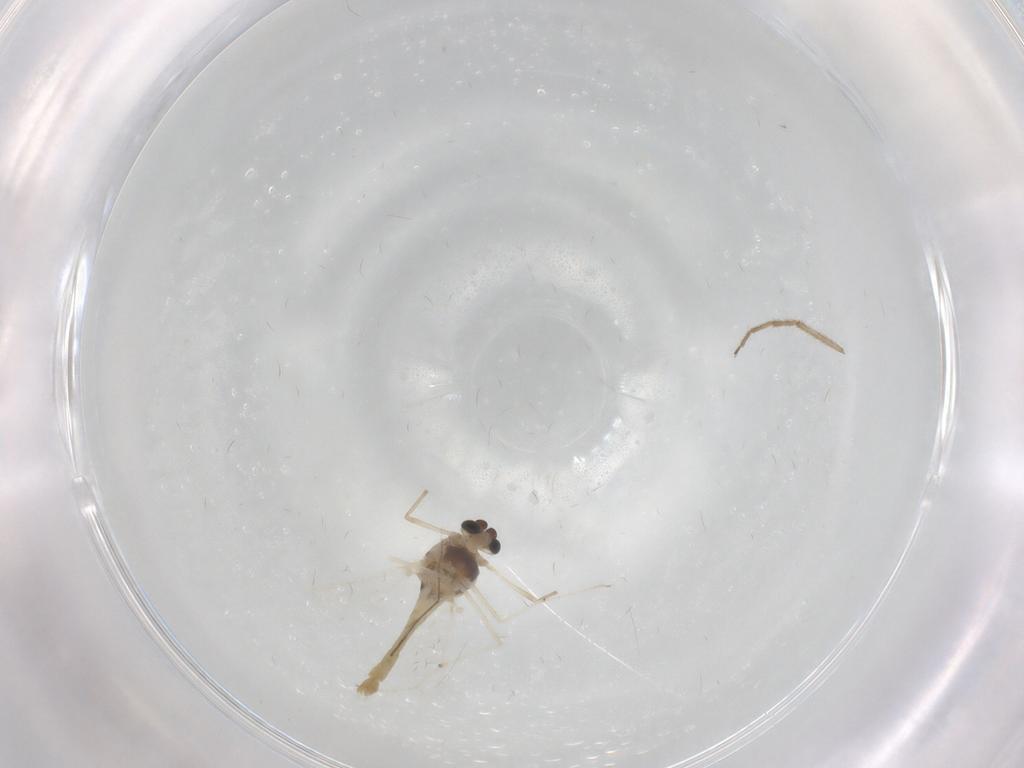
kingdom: Animalia
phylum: Arthropoda
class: Insecta
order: Diptera
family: Chironomidae
